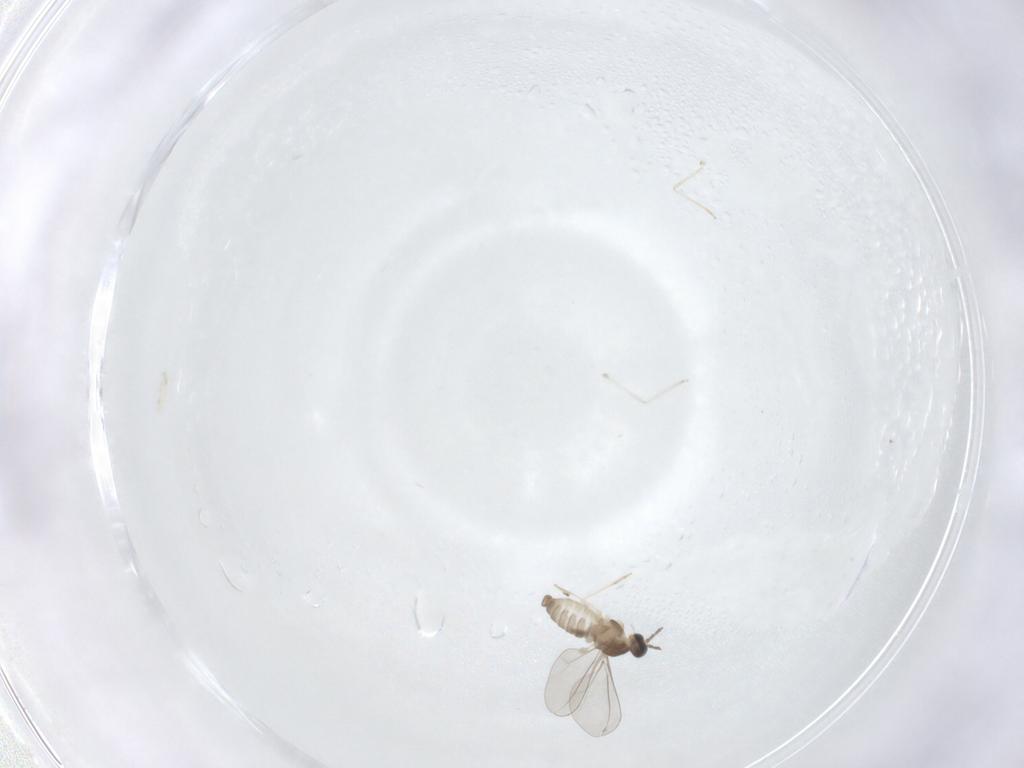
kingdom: Animalia
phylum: Arthropoda
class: Insecta
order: Diptera
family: Cecidomyiidae
